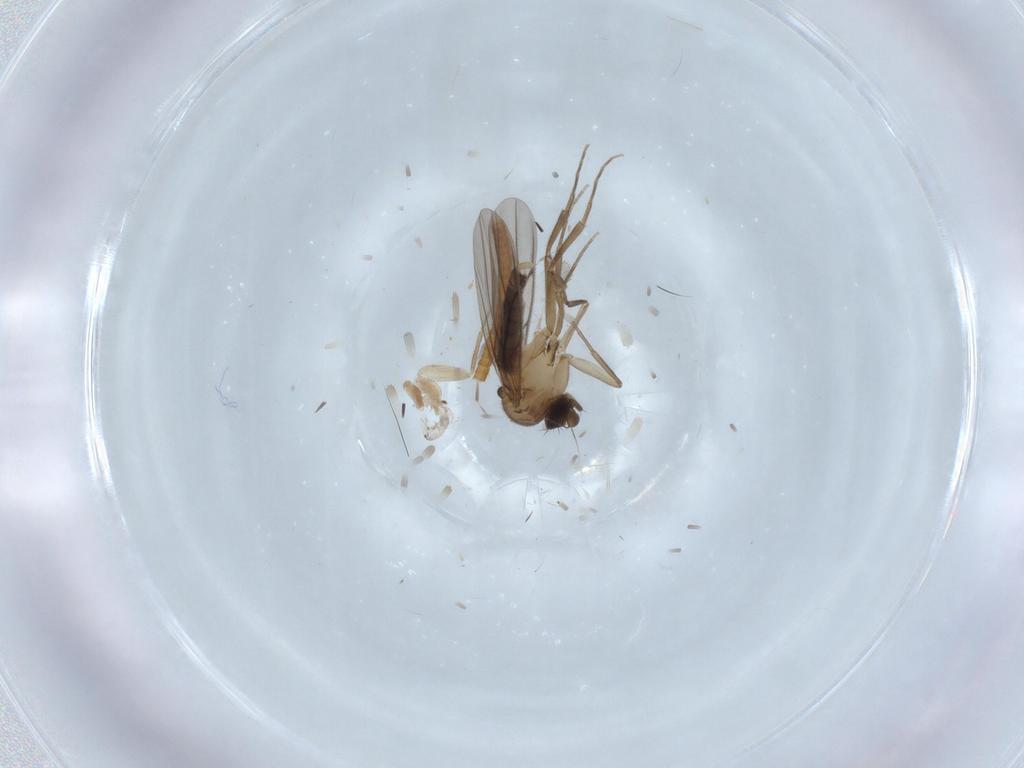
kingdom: Animalia
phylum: Arthropoda
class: Insecta
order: Diptera
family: Phoridae
